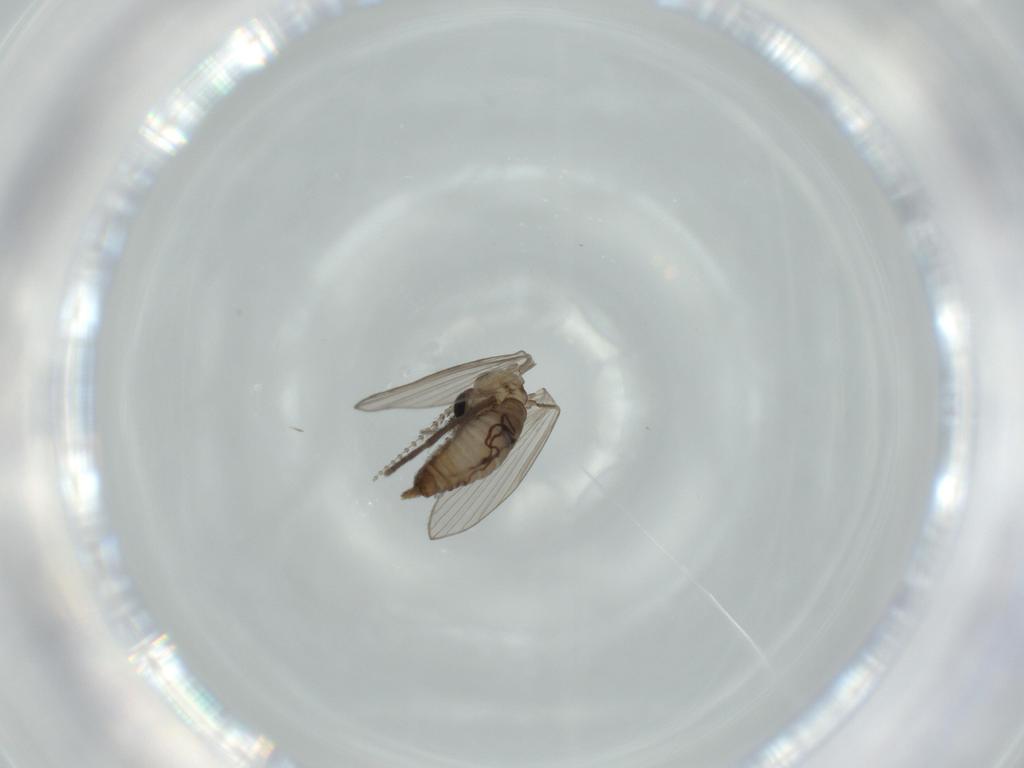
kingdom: Animalia
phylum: Arthropoda
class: Insecta
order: Diptera
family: Psychodidae
